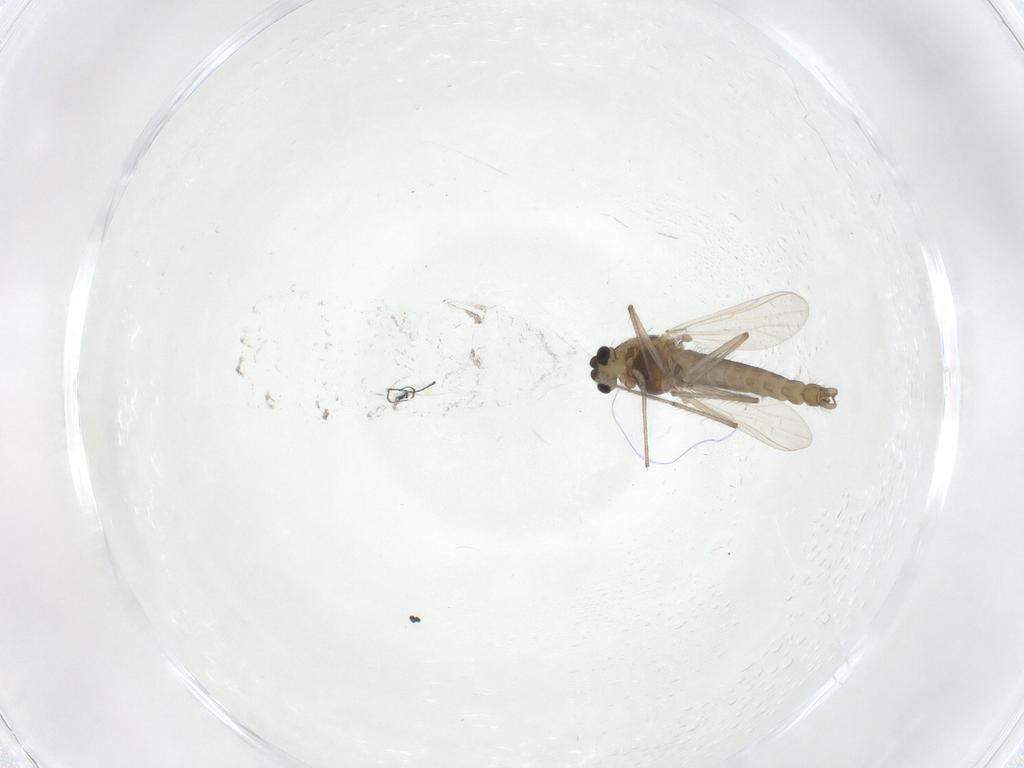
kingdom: Animalia
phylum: Arthropoda
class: Insecta
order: Diptera
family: Chironomidae
